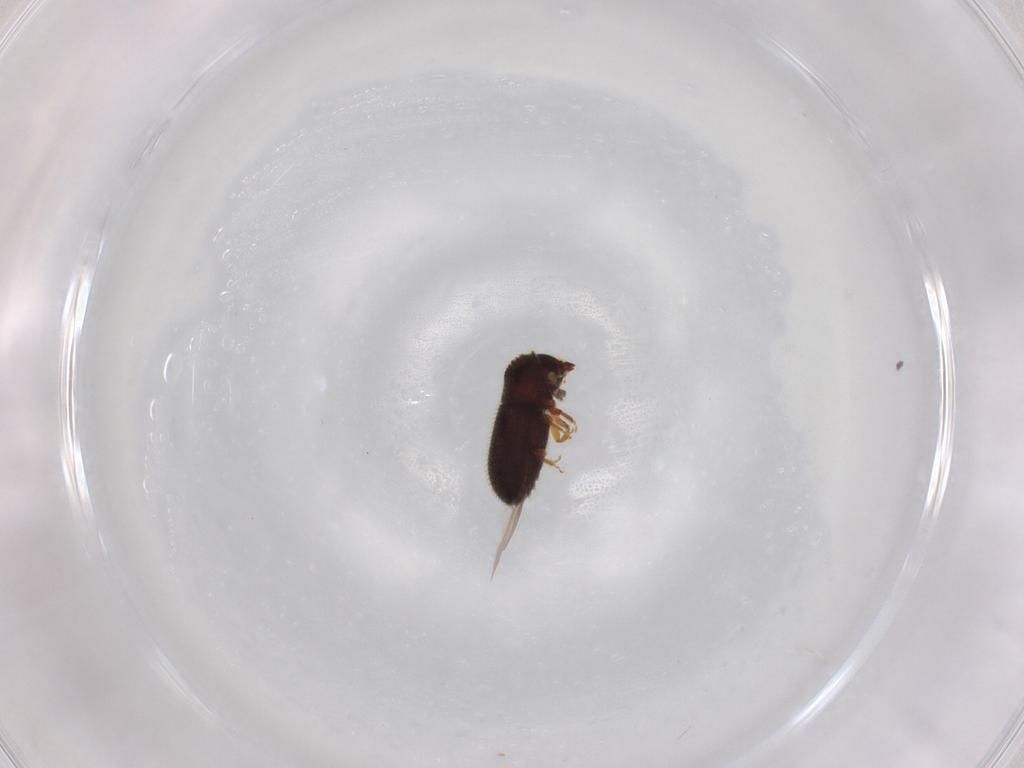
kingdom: Animalia
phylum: Arthropoda
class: Insecta
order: Coleoptera
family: Curculionidae
